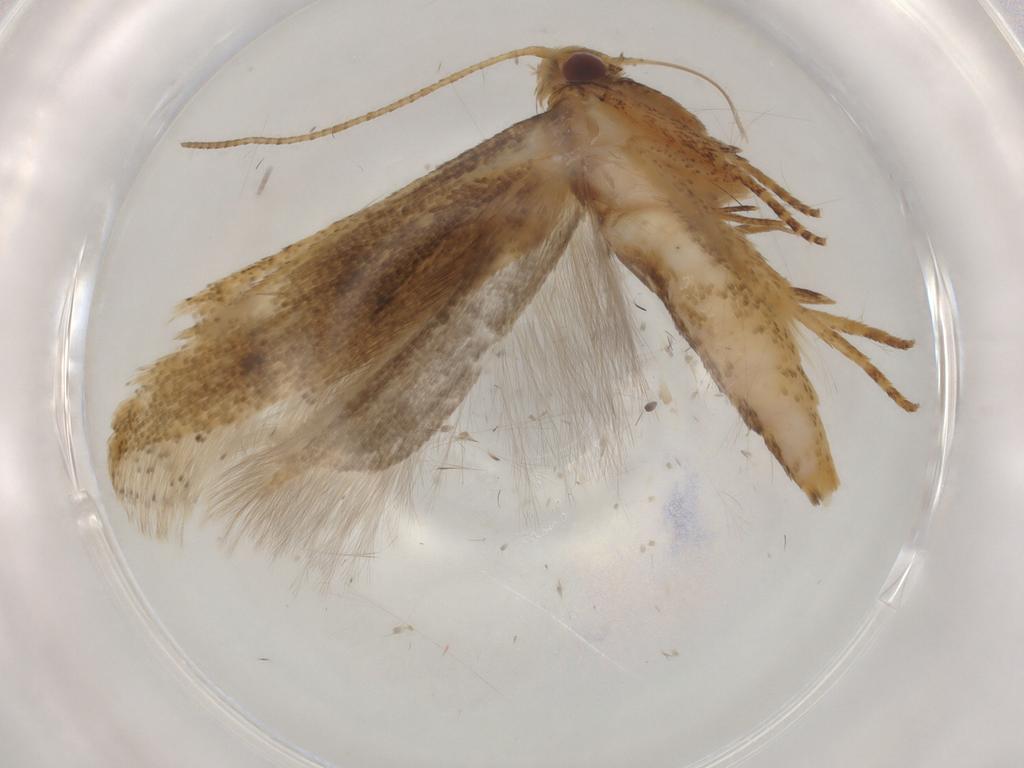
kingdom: Animalia
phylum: Arthropoda
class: Insecta
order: Lepidoptera
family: Gelechiidae
